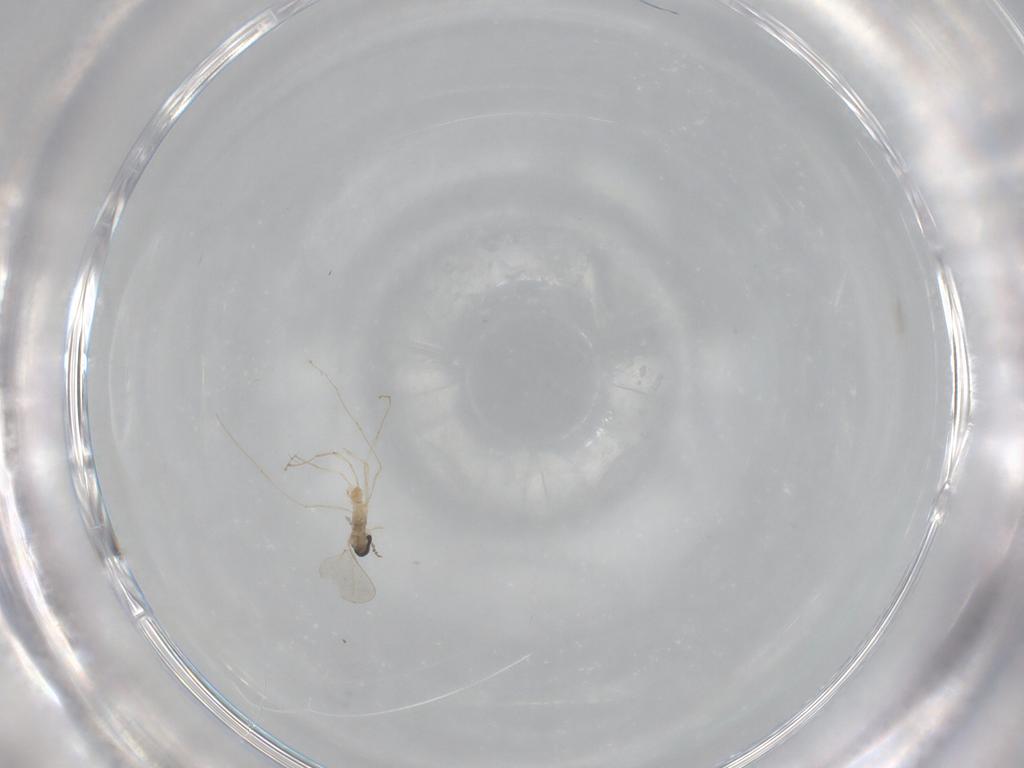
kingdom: Animalia
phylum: Arthropoda
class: Insecta
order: Diptera
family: Cecidomyiidae
